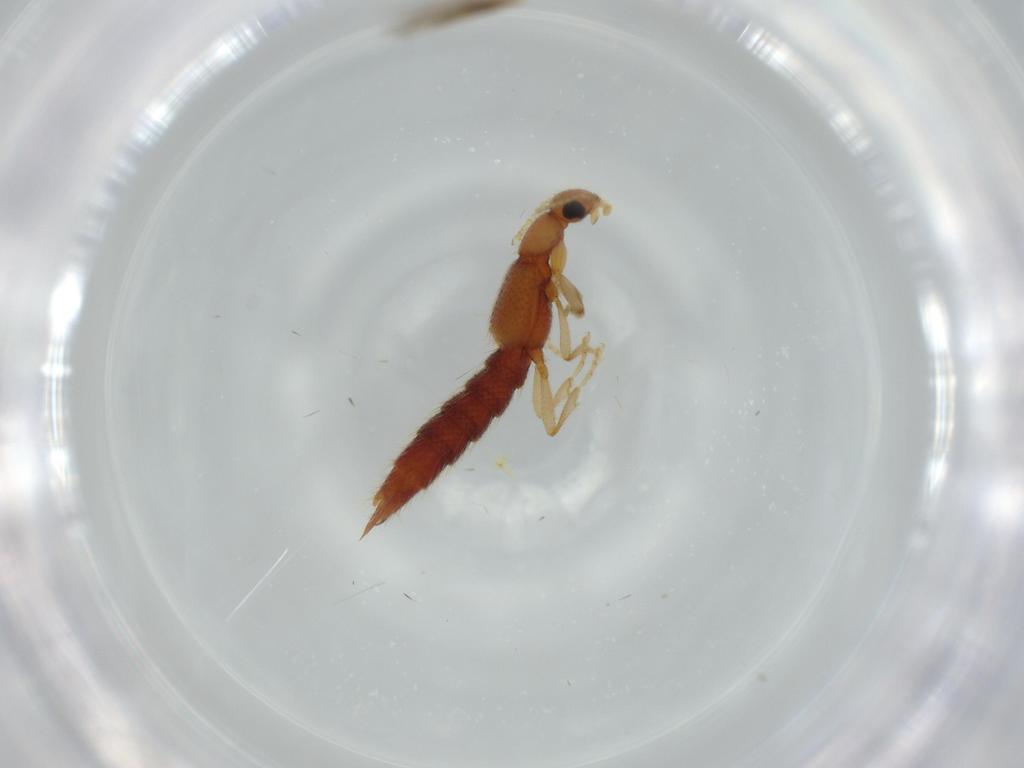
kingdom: Animalia
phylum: Arthropoda
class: Insecta
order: Coleoptera
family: Staphylinidae
